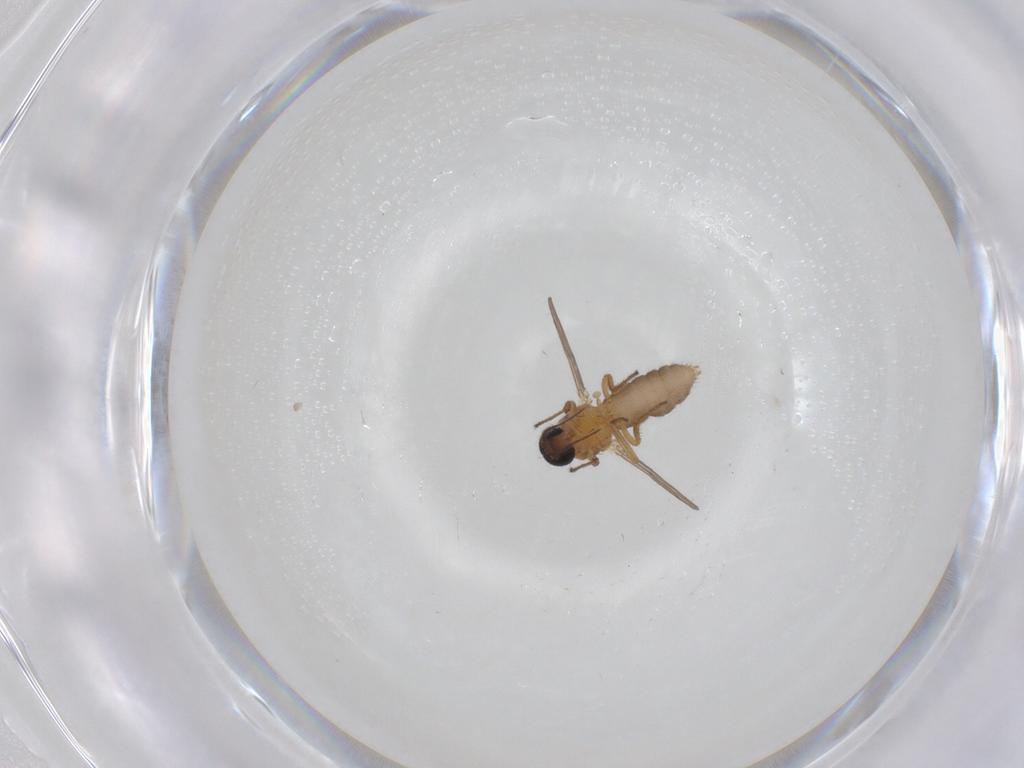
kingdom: Animalia
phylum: Arthropoda
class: Insecta
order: Diptera
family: Ceratopogonidae
